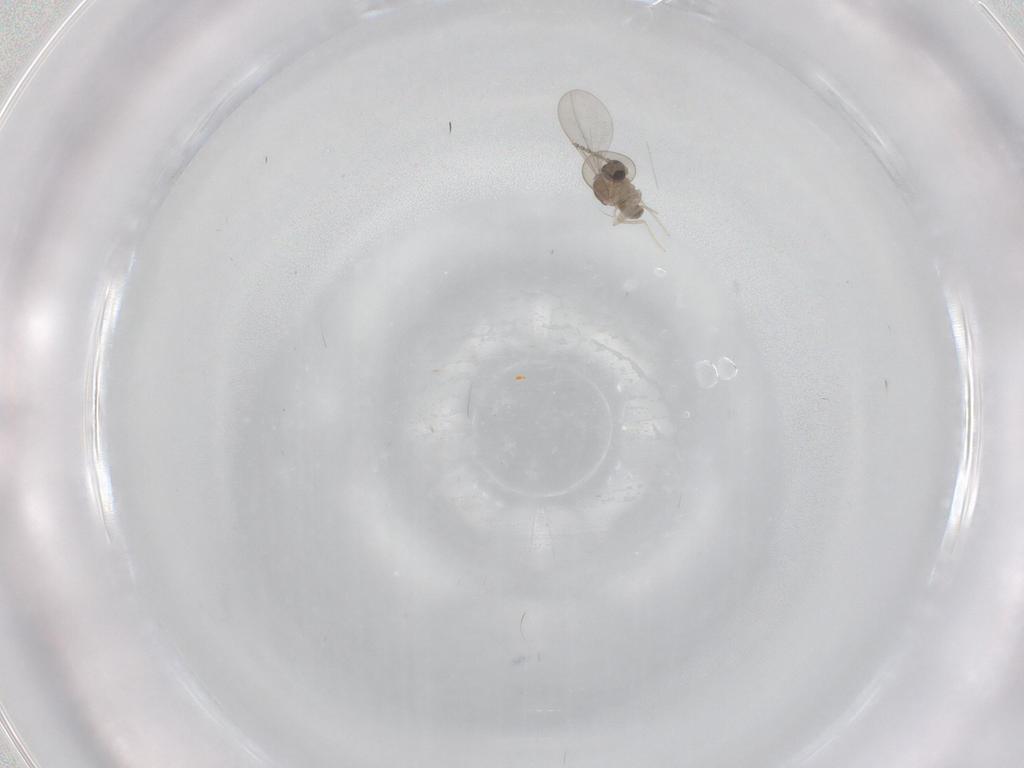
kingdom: Animalia
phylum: Arthropoda
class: Insecta
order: Diptera
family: Cecidomyiidae
